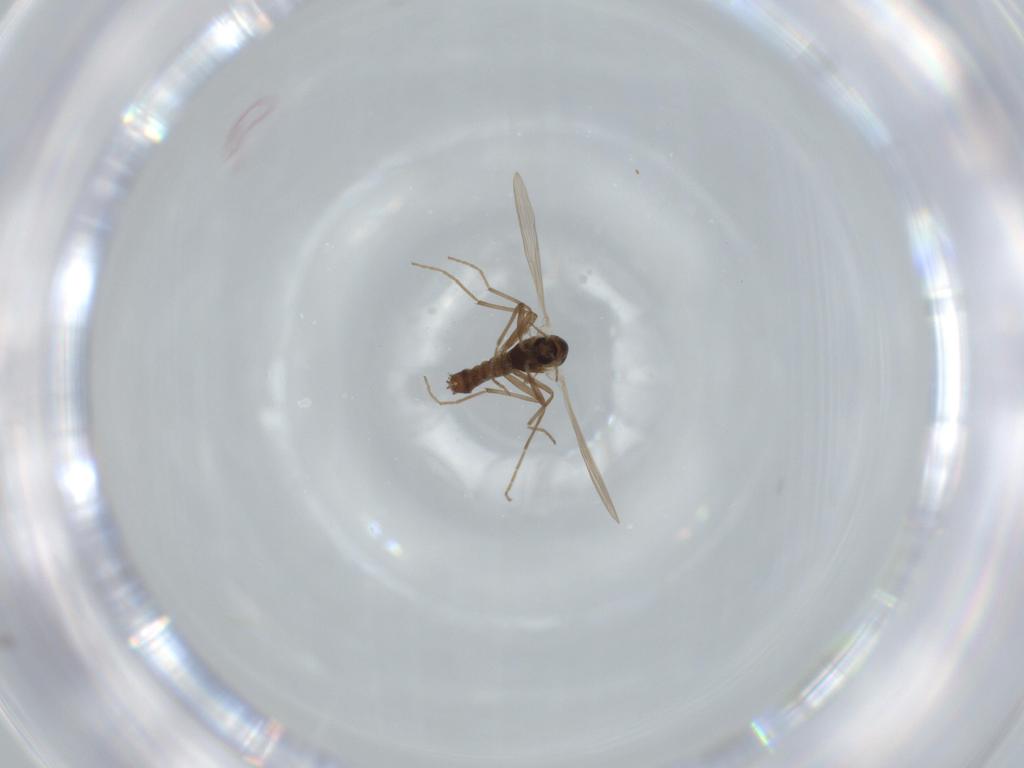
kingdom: Animalia
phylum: Arthropoda
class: Insecta
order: Diptera
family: Chironomidae
